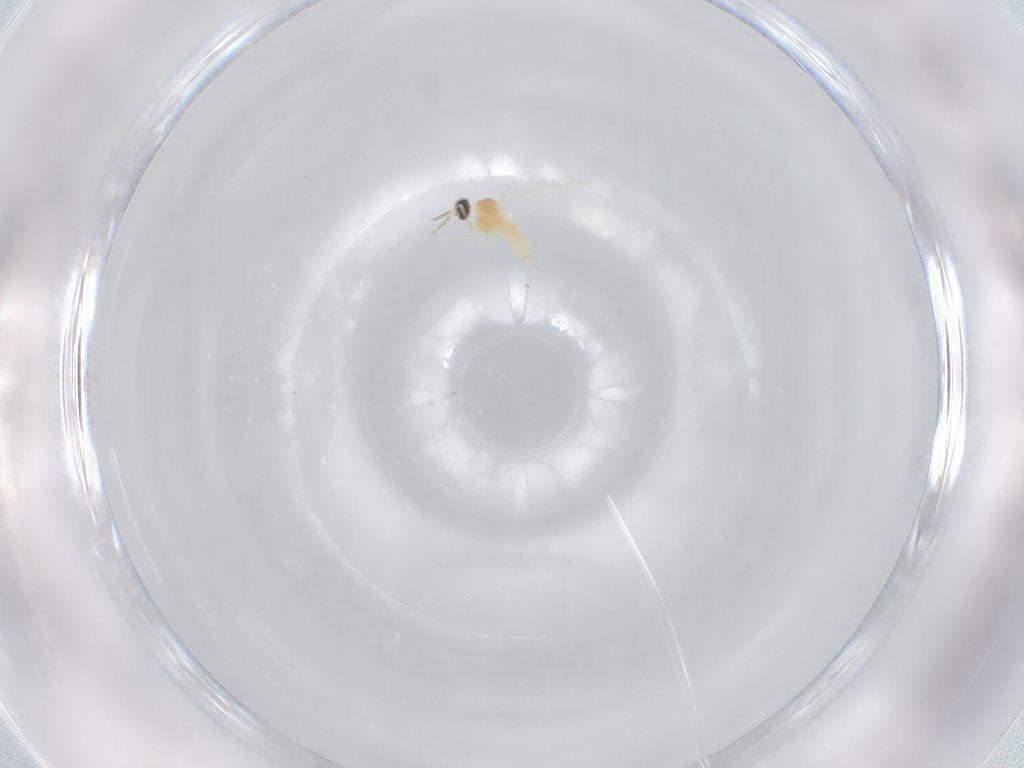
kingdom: Animalia
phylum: Arthropoda
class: Insecta
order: Diptera
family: Cecidomyiidae
